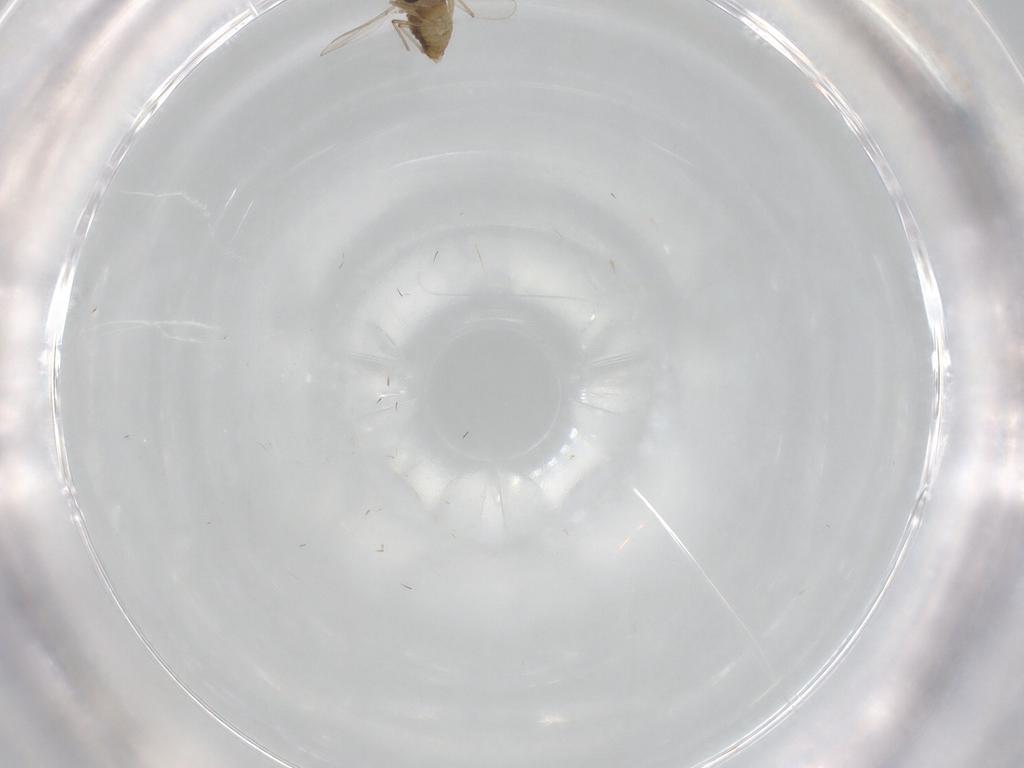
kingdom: Animalia
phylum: Arthropoda
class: Insecta
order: Diptera
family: Chironomidae
